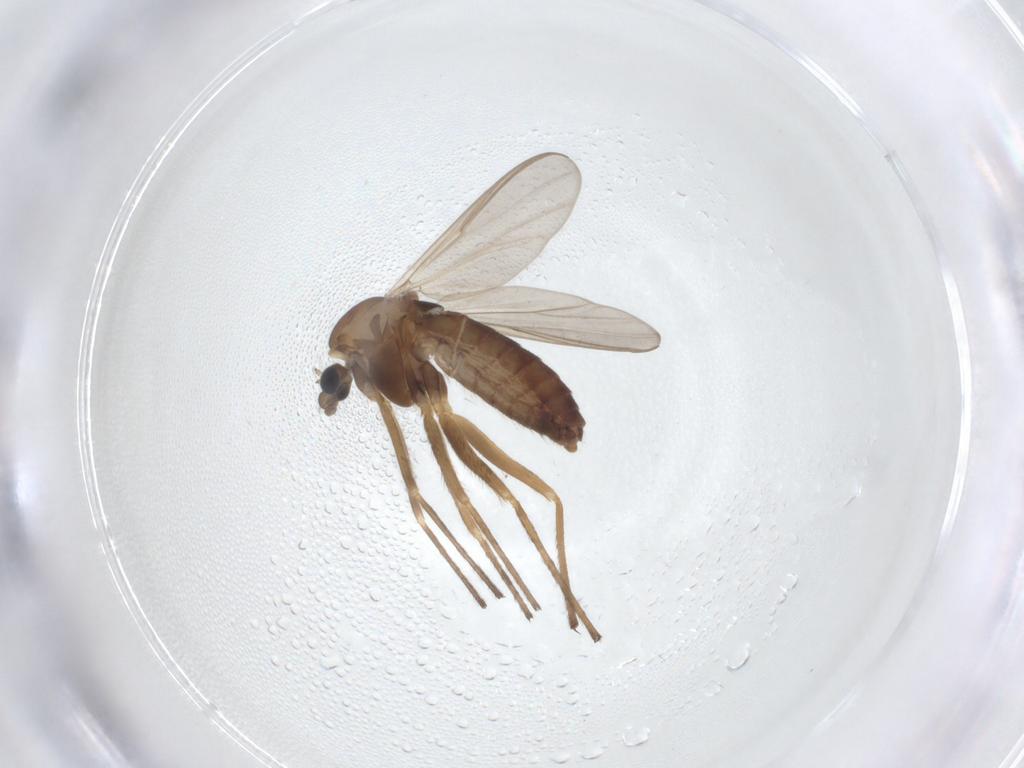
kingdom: Animalia
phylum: Arthropoda
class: Insecta
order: Diptera
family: Chironomidae
